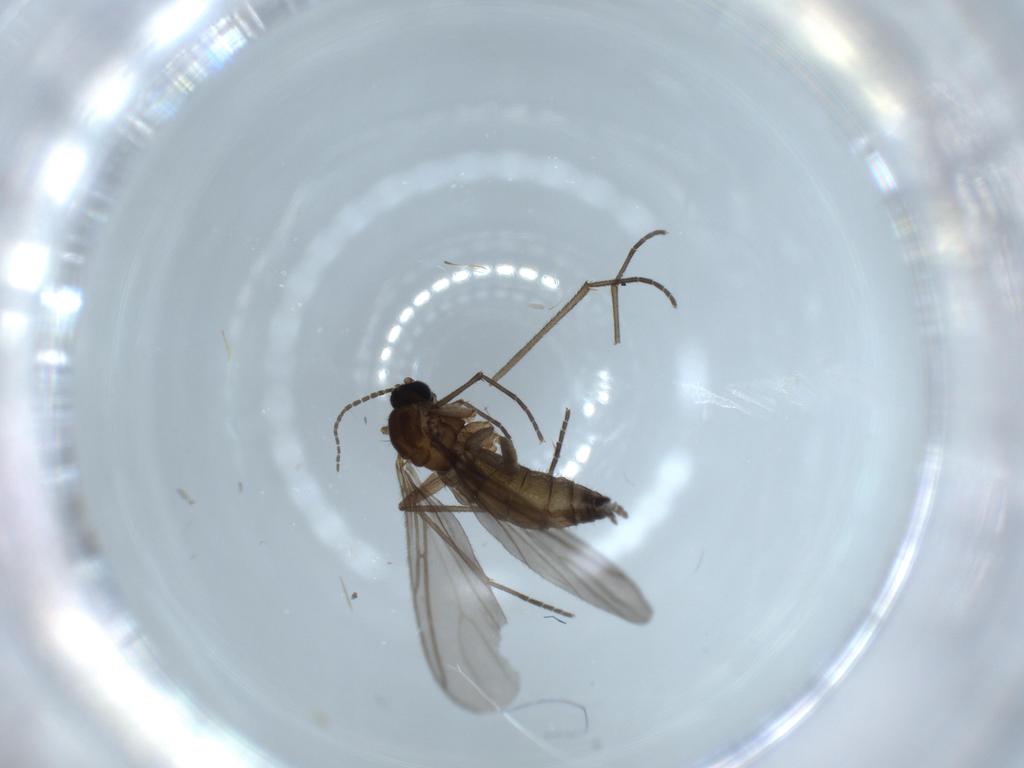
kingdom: Animalia
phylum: Arthropoda
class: Insecta
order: Diptera
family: Sciaridae
